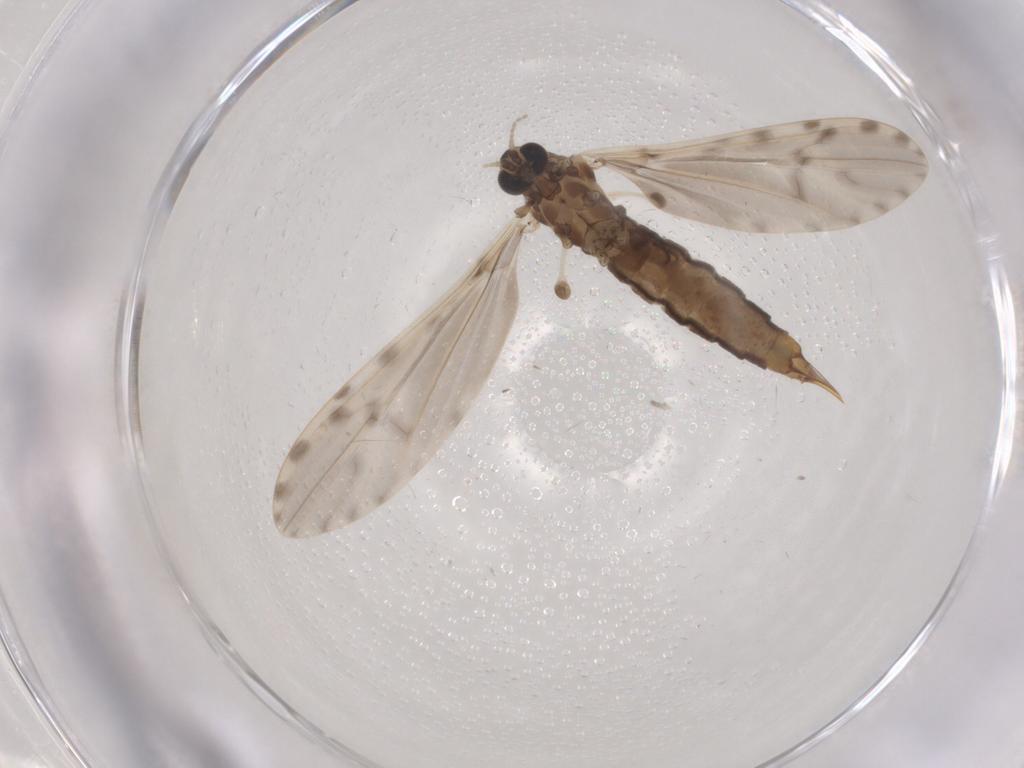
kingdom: Animalia
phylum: Arthropoda
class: Insecta
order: Diptera
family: Limoniidae
